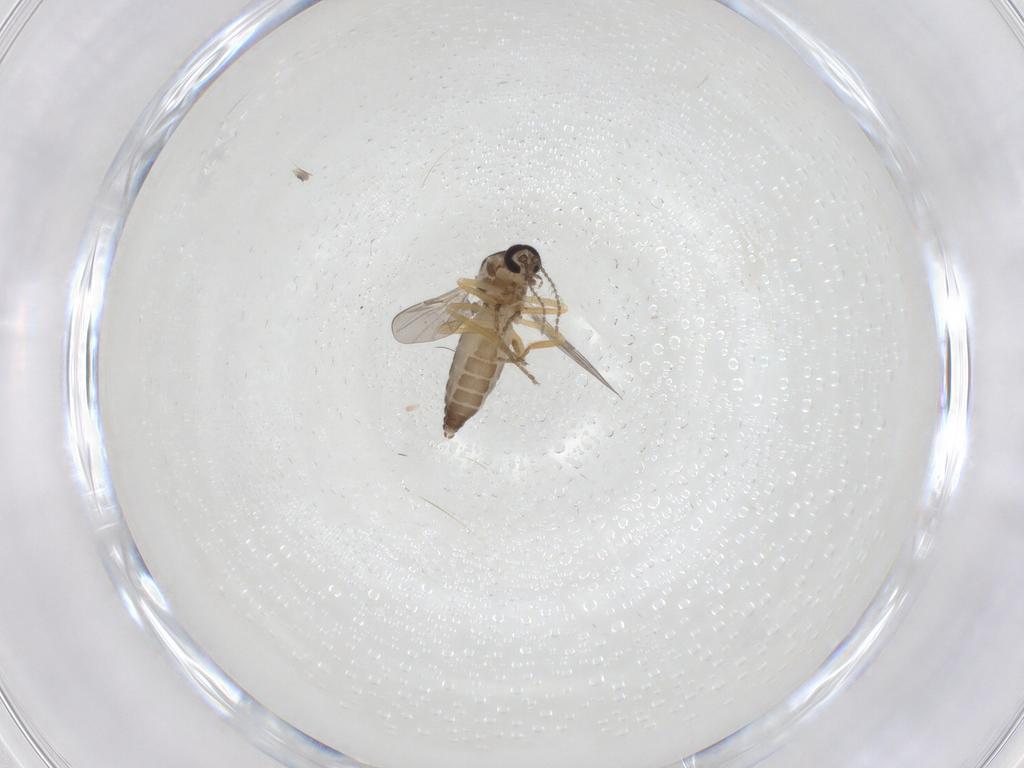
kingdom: Animalia
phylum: Arthropoda
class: Insecta
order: Diptera
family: Ceratopogonidae
